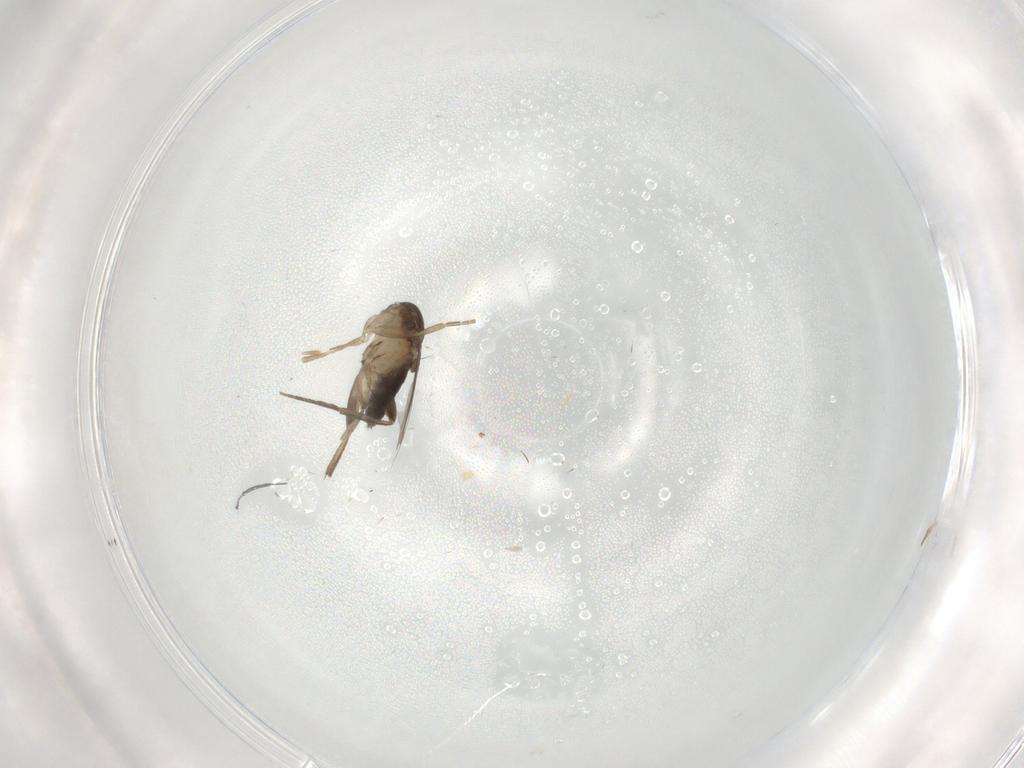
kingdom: Animalia
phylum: Arthropoda
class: Insecta
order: Diptera
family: Phoridae
